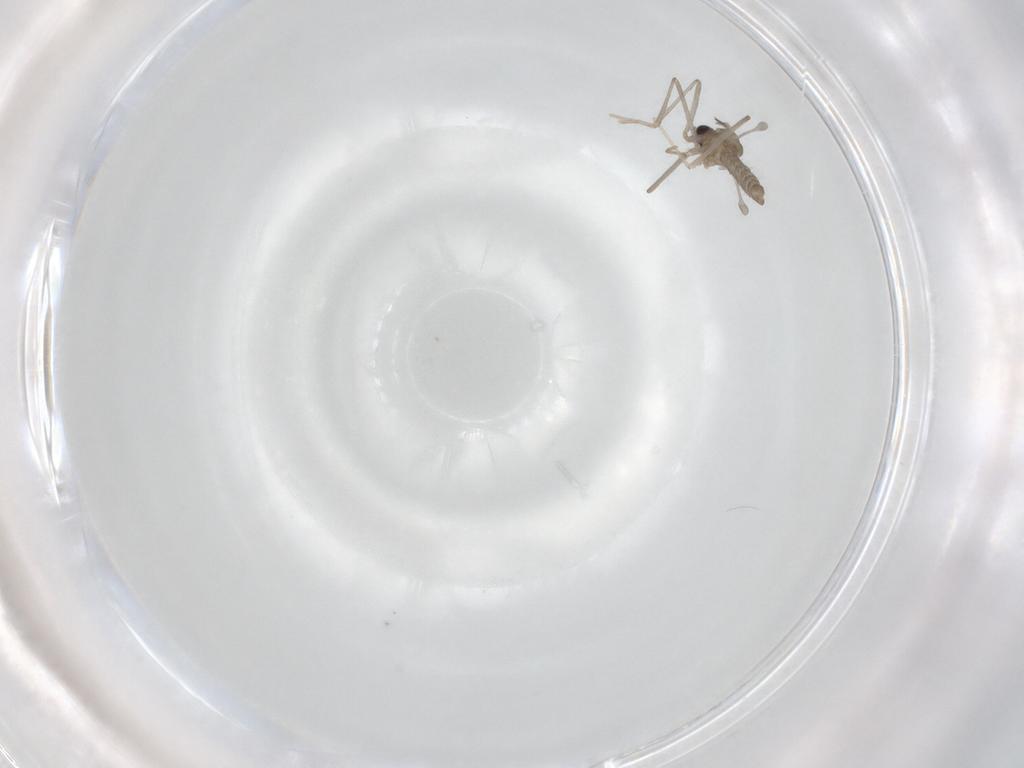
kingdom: Animalia
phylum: Arthropoda
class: Insecta
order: Diptera
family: Cecidomyiidae
